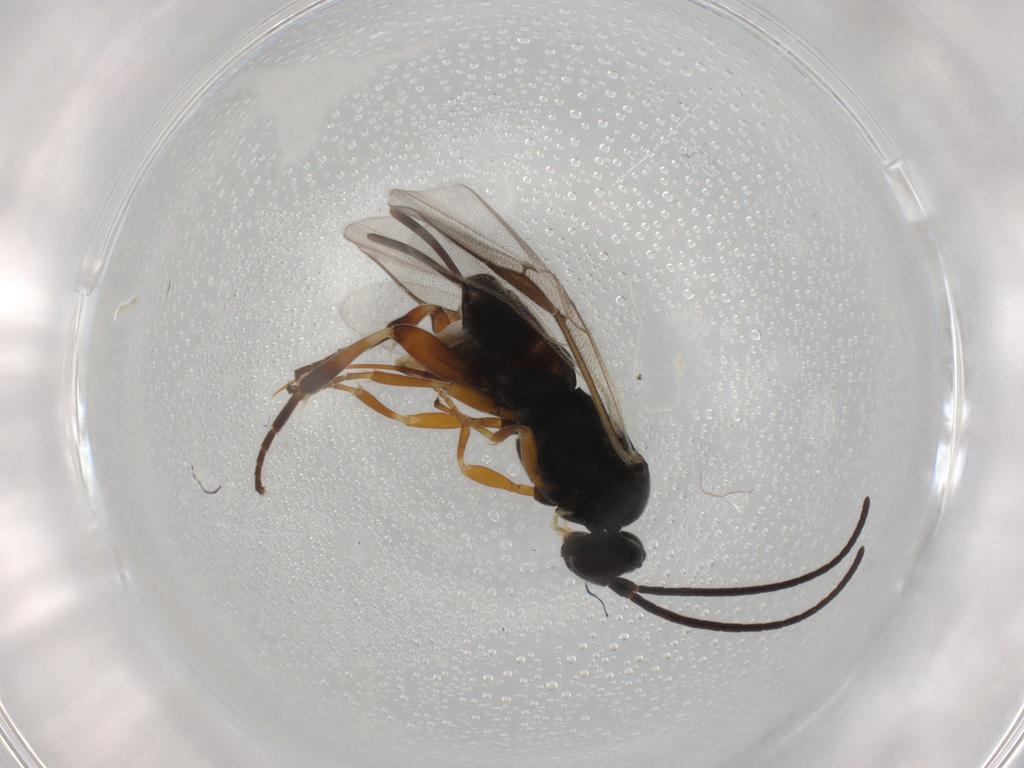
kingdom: Animalia
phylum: Arthropoda
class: Insecta
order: Hymenoptera
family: Braconidae
